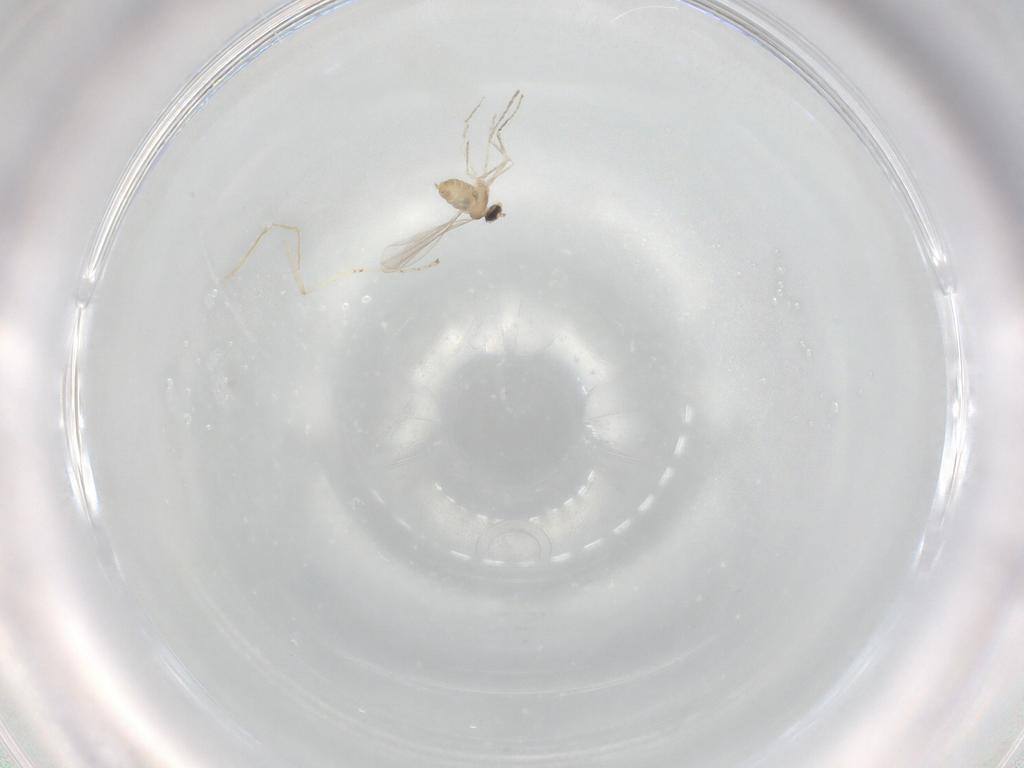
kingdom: Animalia
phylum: Arthropoda
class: Insecta
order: Diptera
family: Cecidomyiidae
